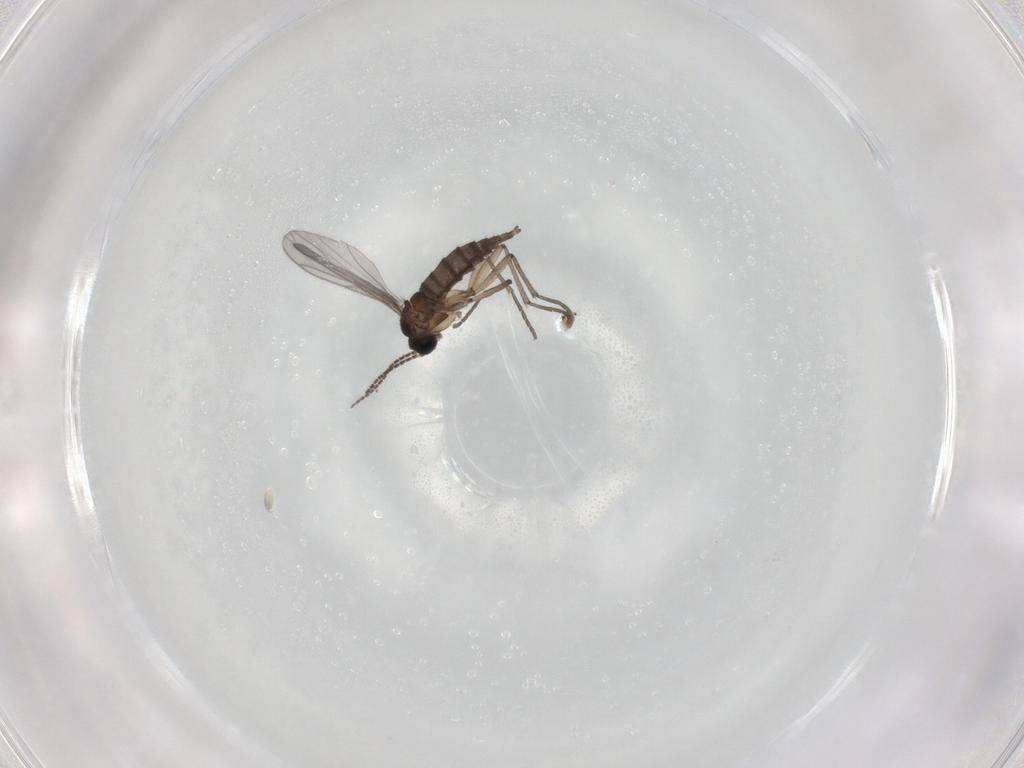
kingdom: Animalia
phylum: Arthropoda
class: Insecta
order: Diptera
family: Sciaridae
